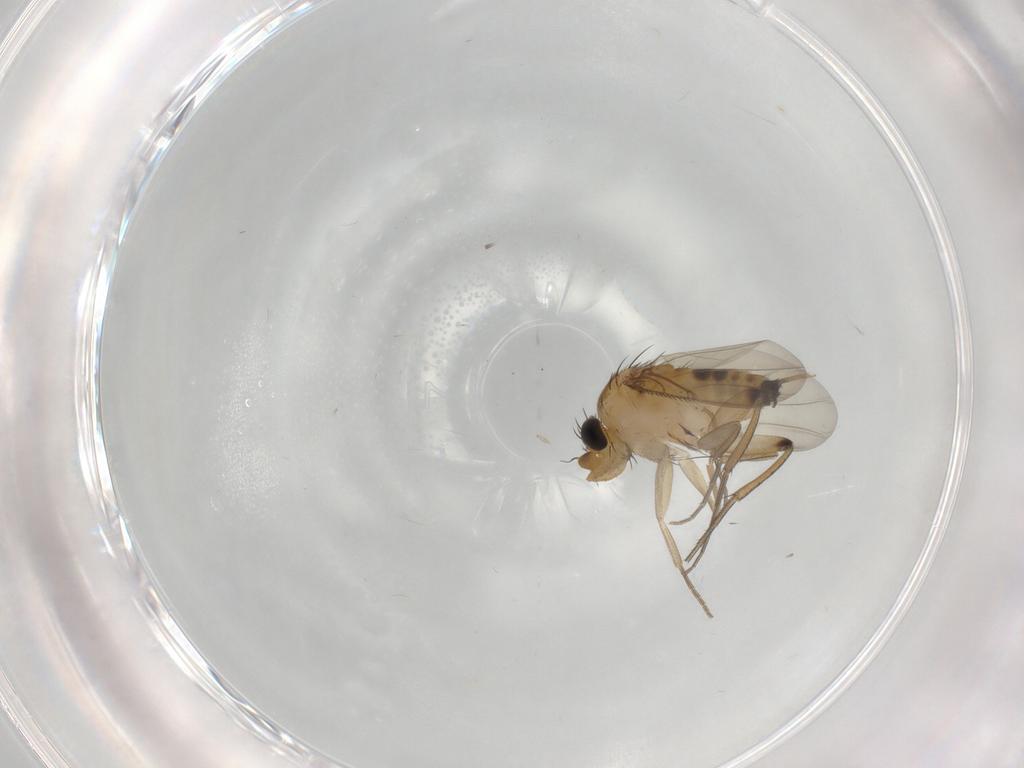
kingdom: Animalia
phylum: Arthropoda
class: Insecta
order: Diptera
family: Phoridae
